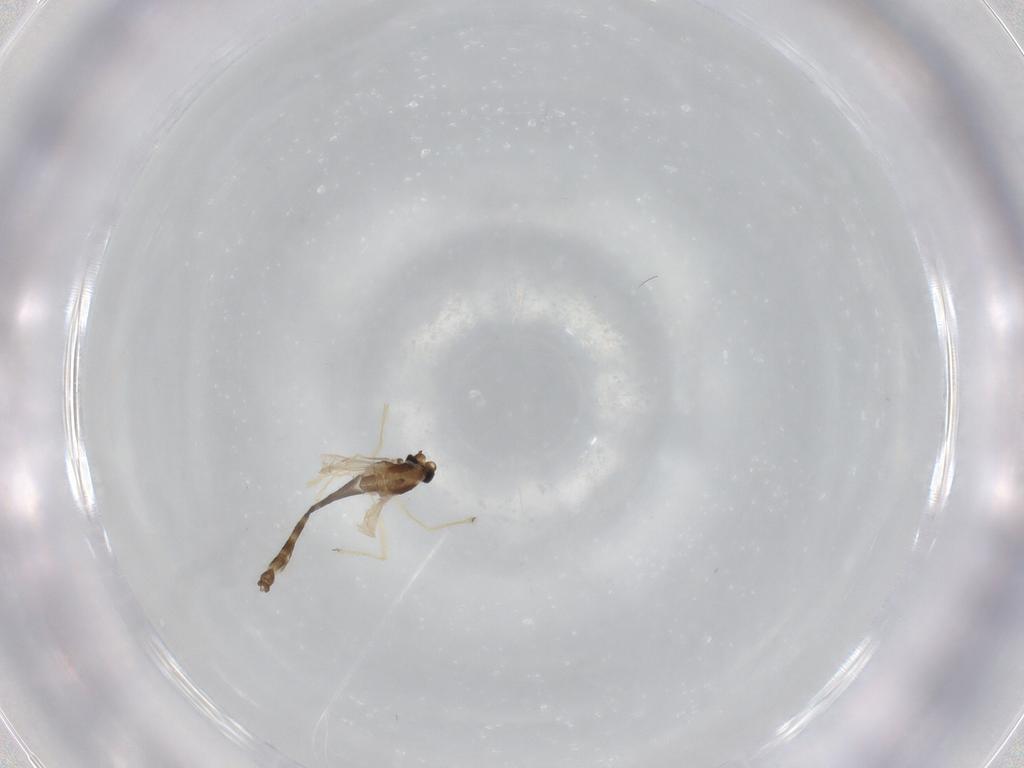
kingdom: Animalia
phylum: Arthropoda
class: Insecta
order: Diptera
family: Chironomidae
